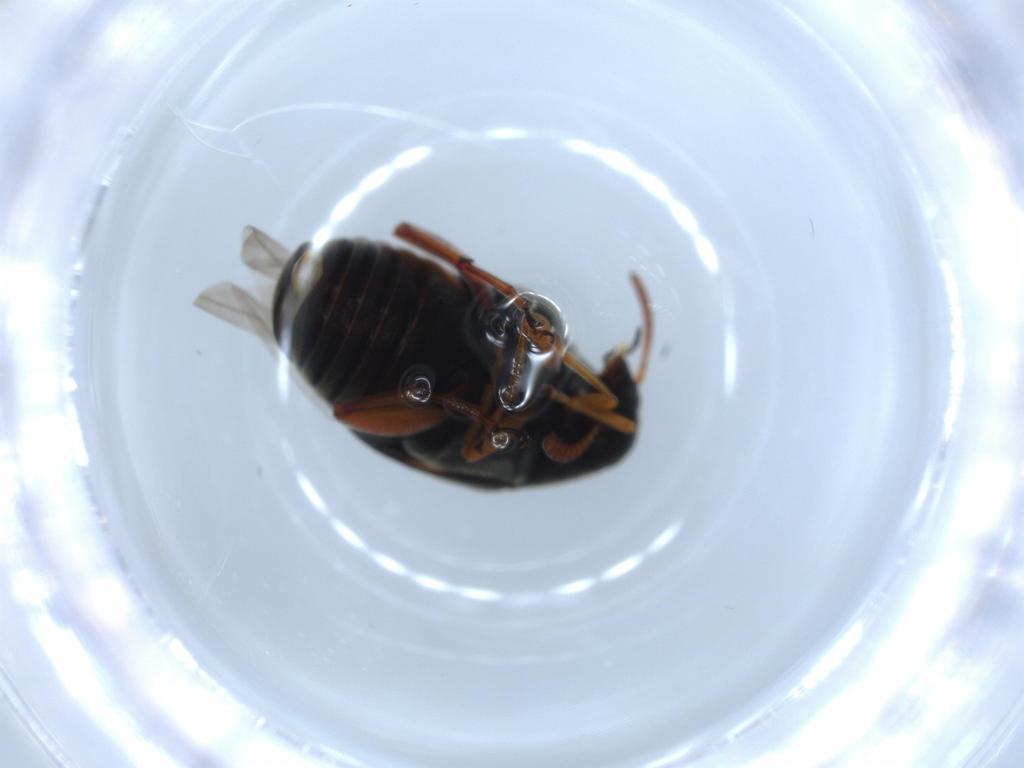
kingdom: Animalia
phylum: Arthropoda
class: Insecta
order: Coleoptera
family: Chrysomelidae
